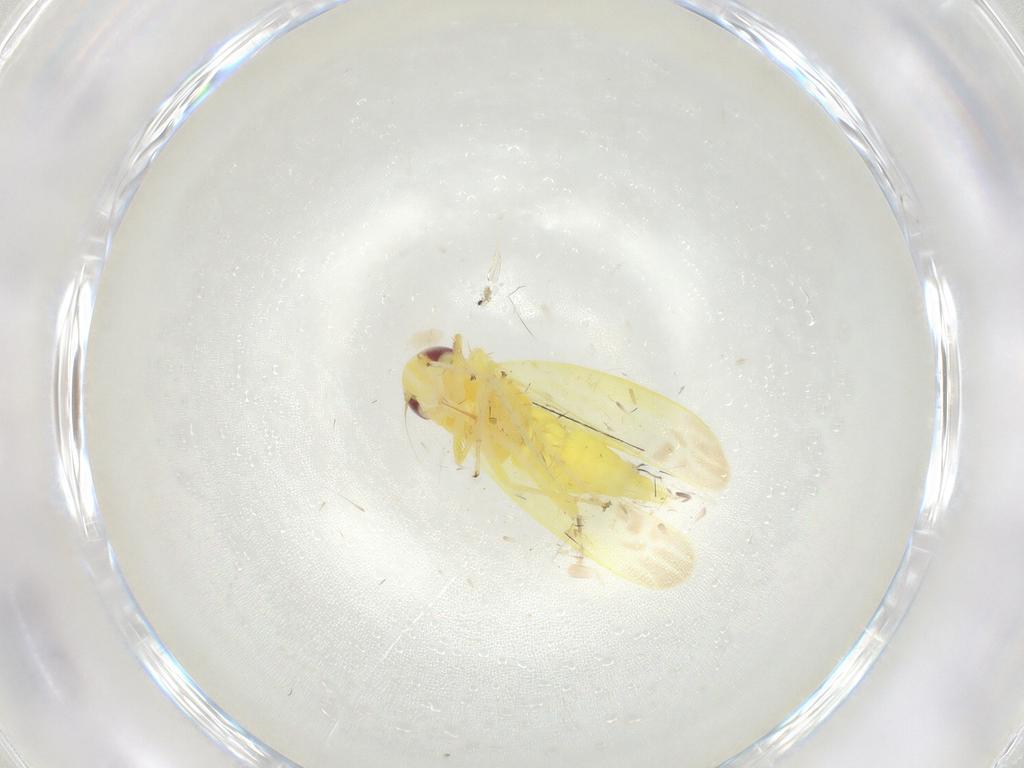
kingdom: Animalia
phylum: Arthropoda
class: Insecta
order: Hemiptera
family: Cicadellidae
